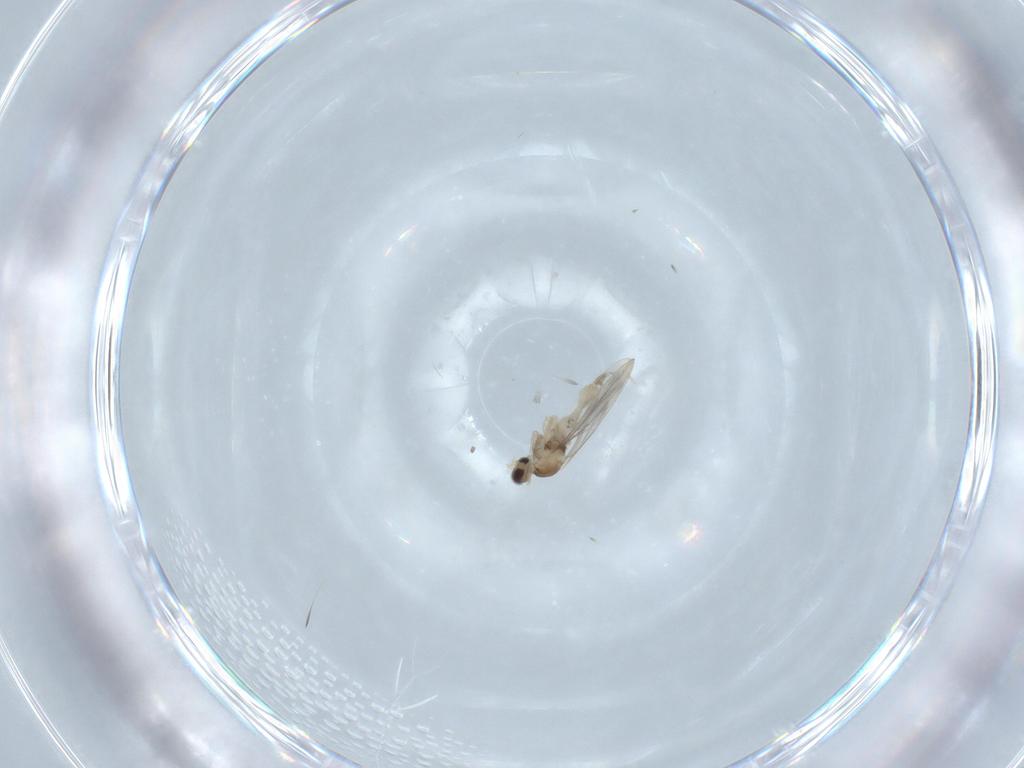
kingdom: Animalia
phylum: Arthropoda
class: Insecta
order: Diptera
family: Cecidomyiidae
